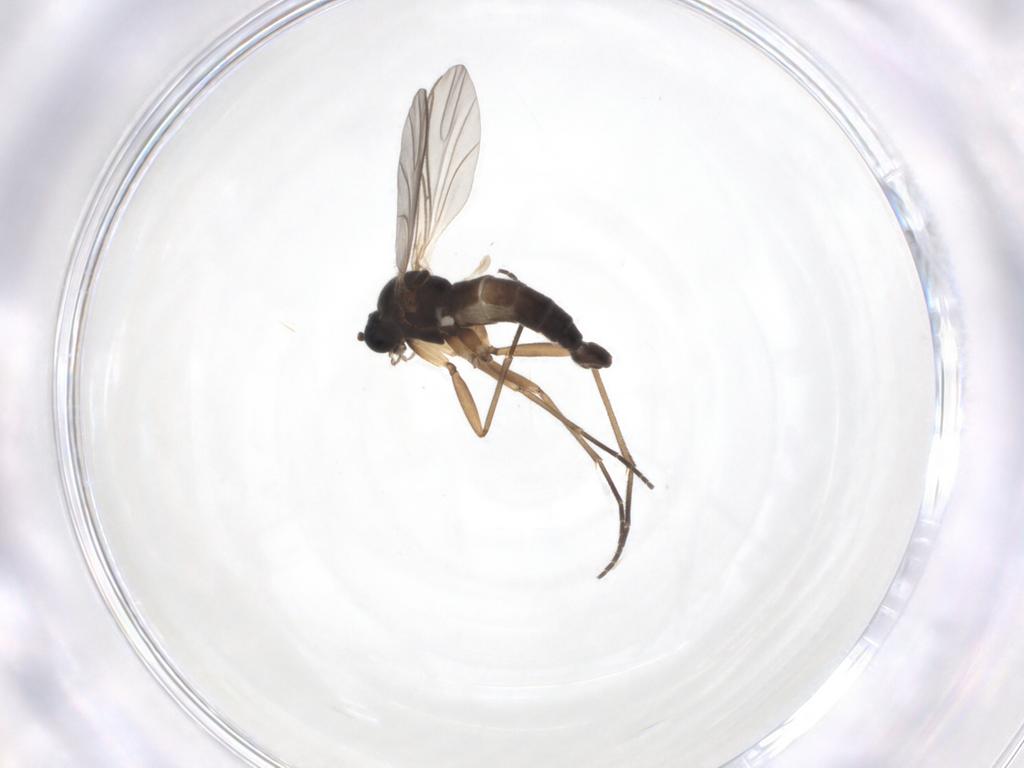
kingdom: Animalia
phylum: Arthropoda
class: Insecta
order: Diptera
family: Sciaridae
